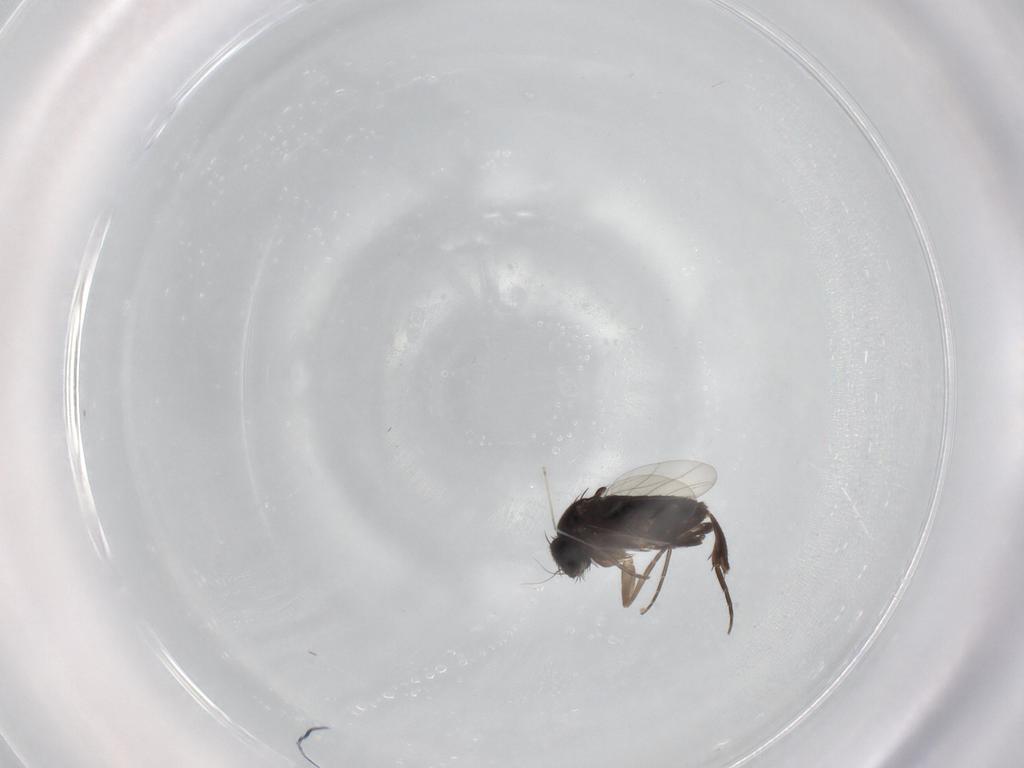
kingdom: Animalia
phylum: Arthropoda
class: Insecta
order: Diptera
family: Phoridae
